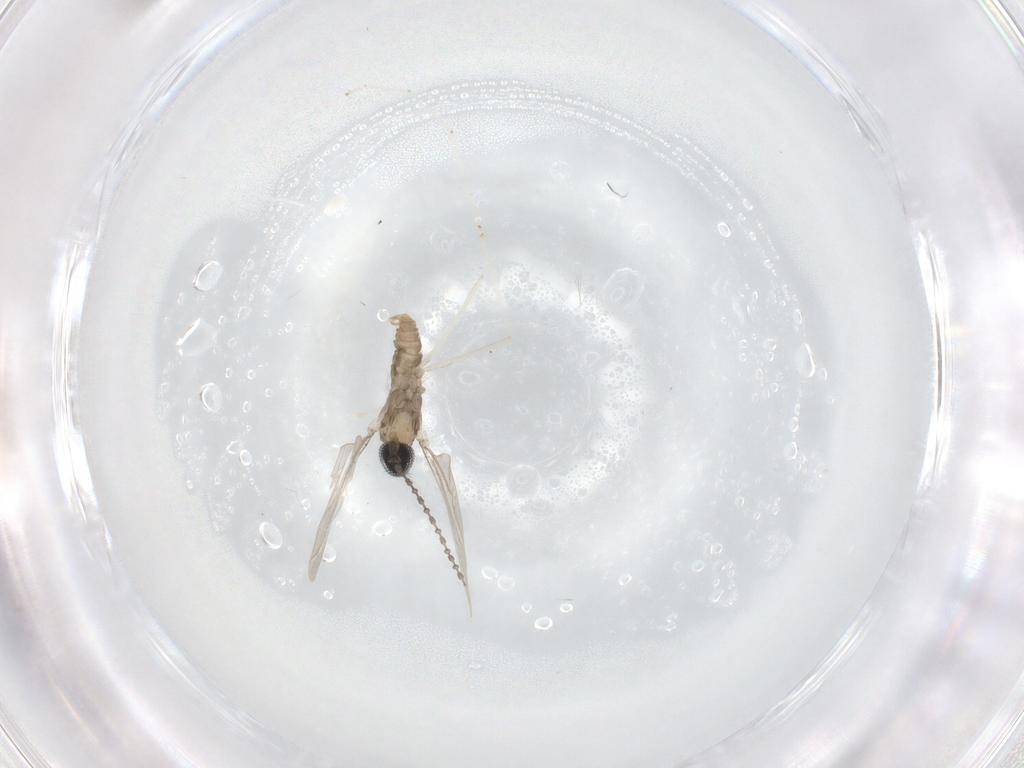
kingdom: Animalia
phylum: Arthropoda
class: Insecta
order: Diptera
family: Cecidomyiidae
